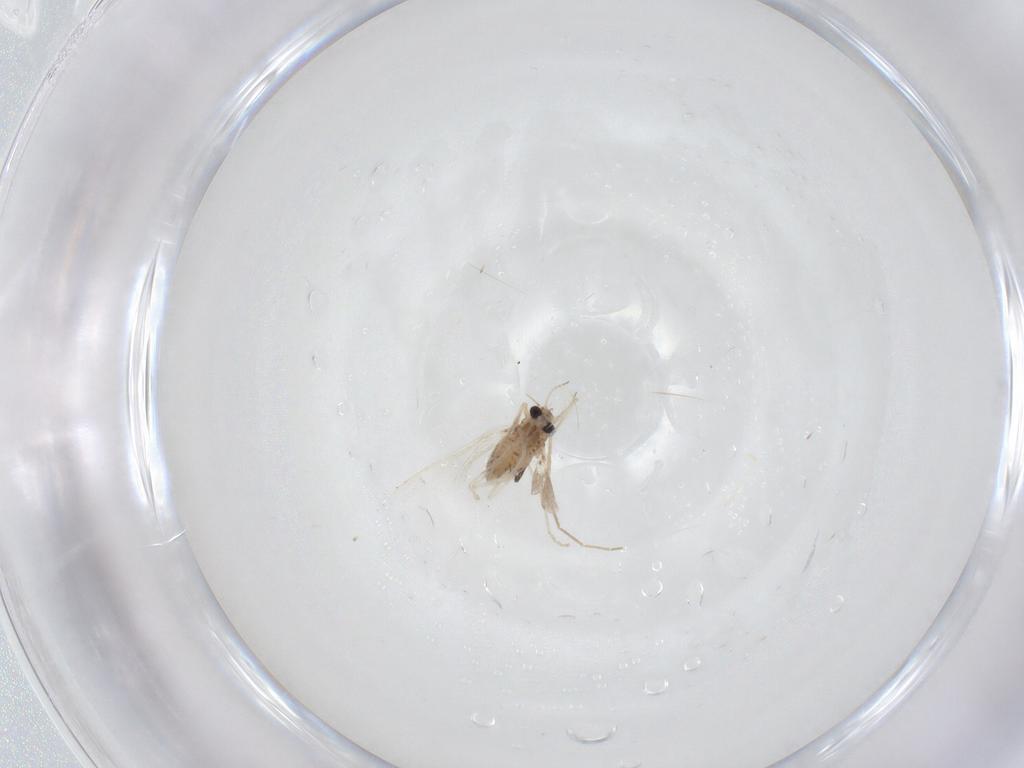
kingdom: Animalia
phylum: Arthropoda
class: Insecta
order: Diptera
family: Chironomidae
